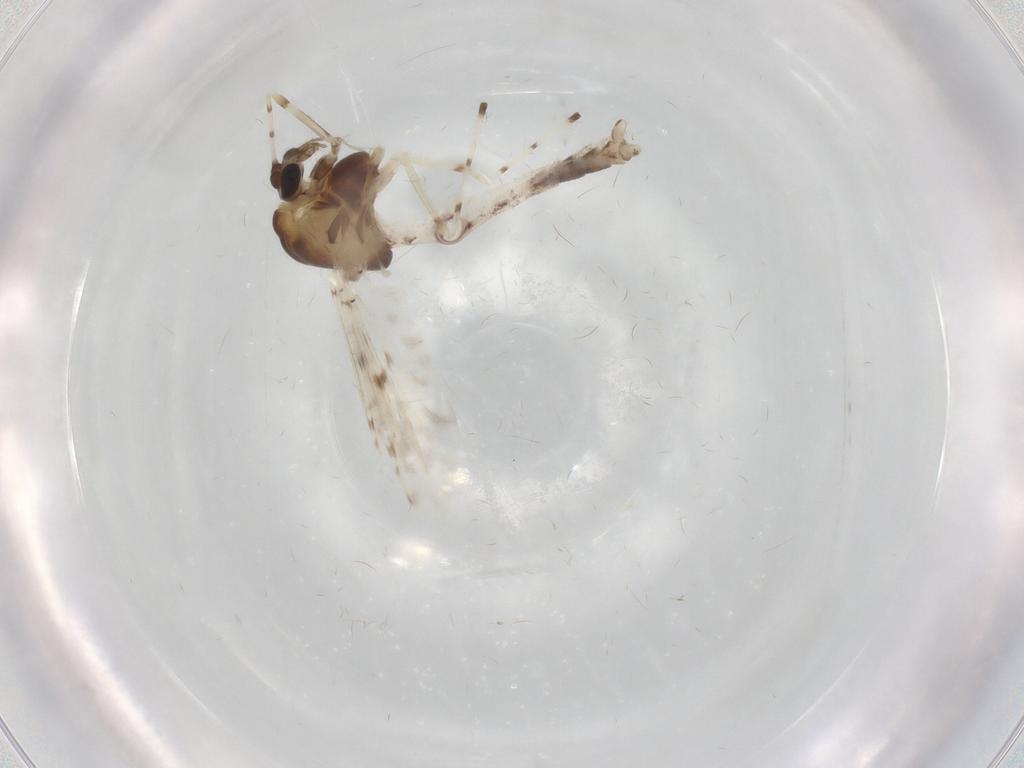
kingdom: Animalia
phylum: Arthropoda
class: Insecta
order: Diptera
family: Chironomidae
